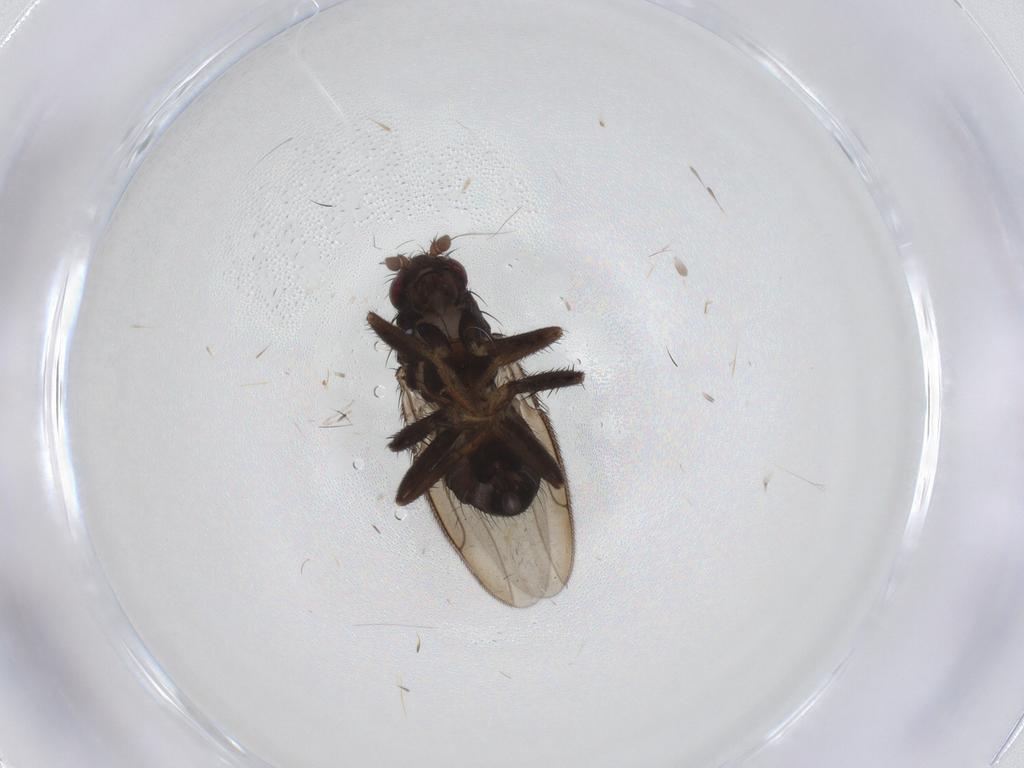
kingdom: Animalia
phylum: Arthropoda
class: Insecta
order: Diptera
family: Sphaeroceridae
